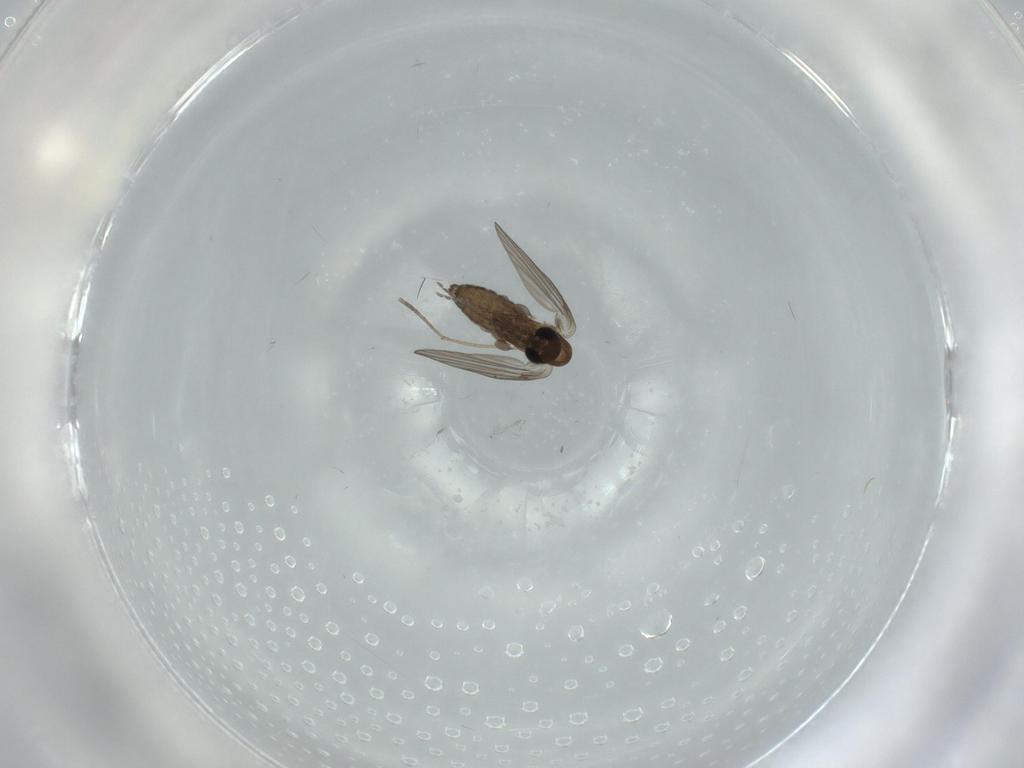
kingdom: Animalia
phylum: Arthropoda
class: Insecta
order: Diptera
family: Psychodidae
